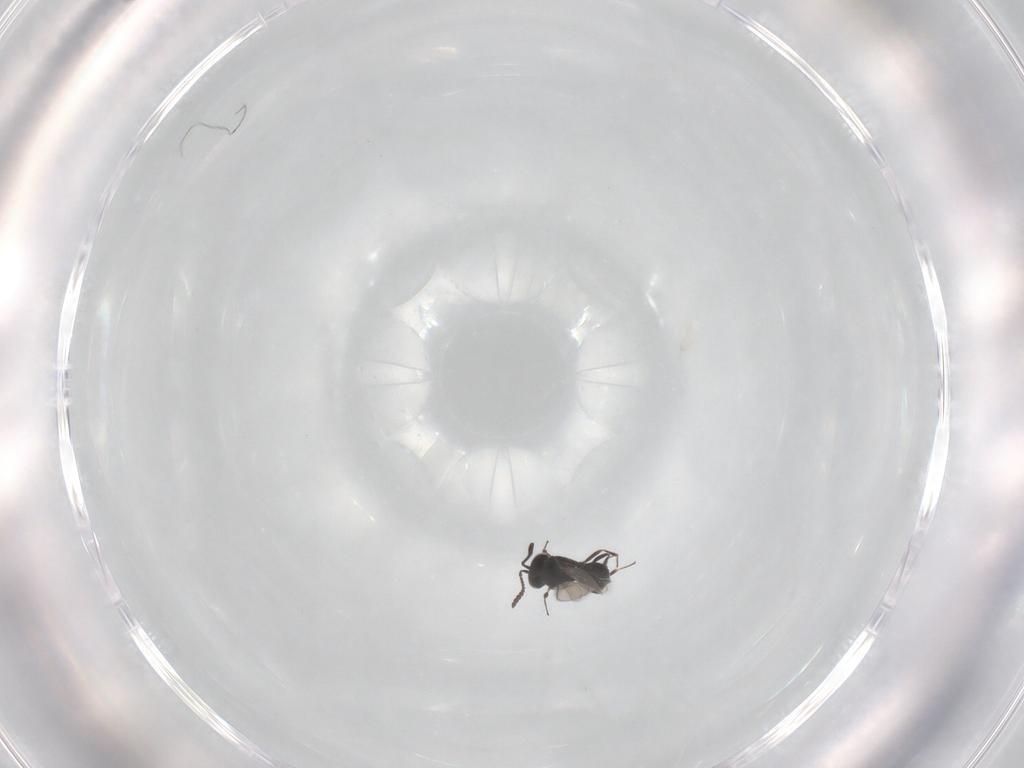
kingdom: Animalia
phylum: Arthropoda
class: Insecta
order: Hymenoptera
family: Scelionidae
